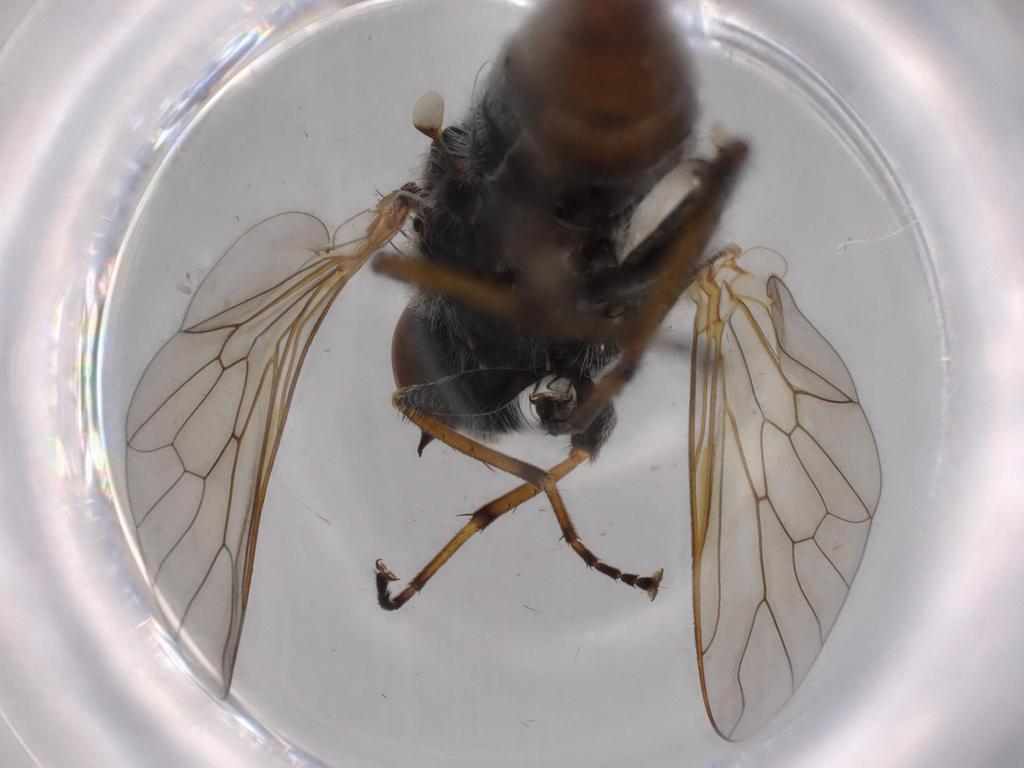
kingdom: Animalia
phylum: Arthropoda
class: Insecta
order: Diptera
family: Therevidae
